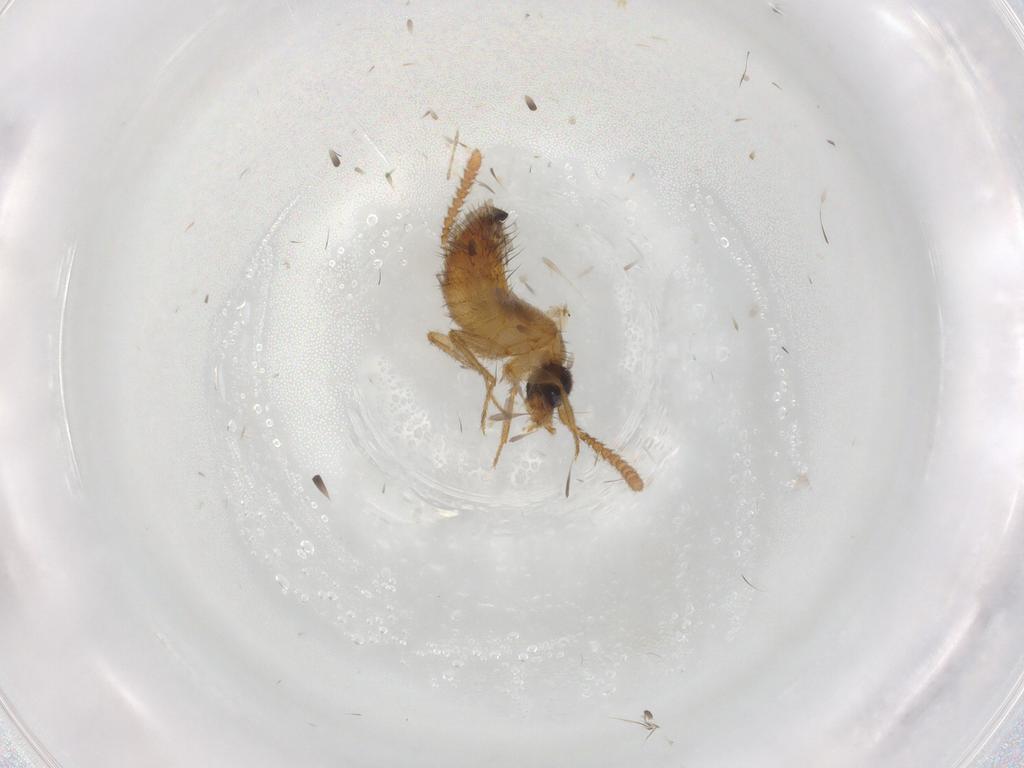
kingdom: Animalia
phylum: Arthropoda
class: Insecta
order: Coleoptera
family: Staphylinidae
